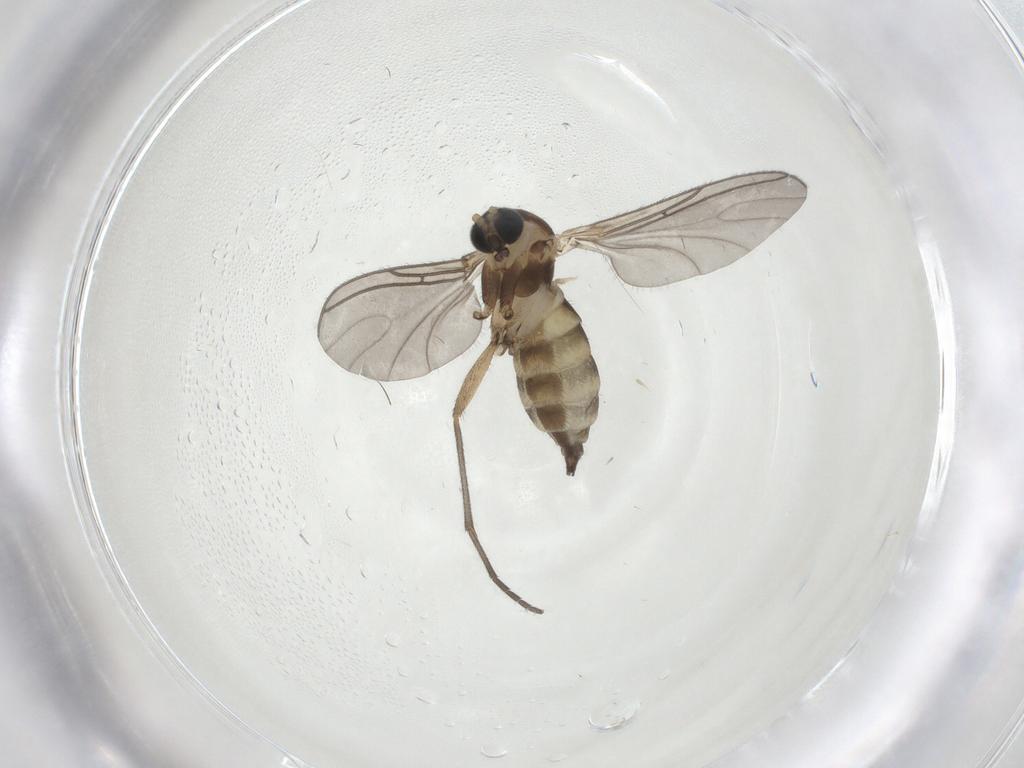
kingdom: Animalia
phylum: Arthropoda
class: Insecta
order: Diptera
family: Sciaridae
